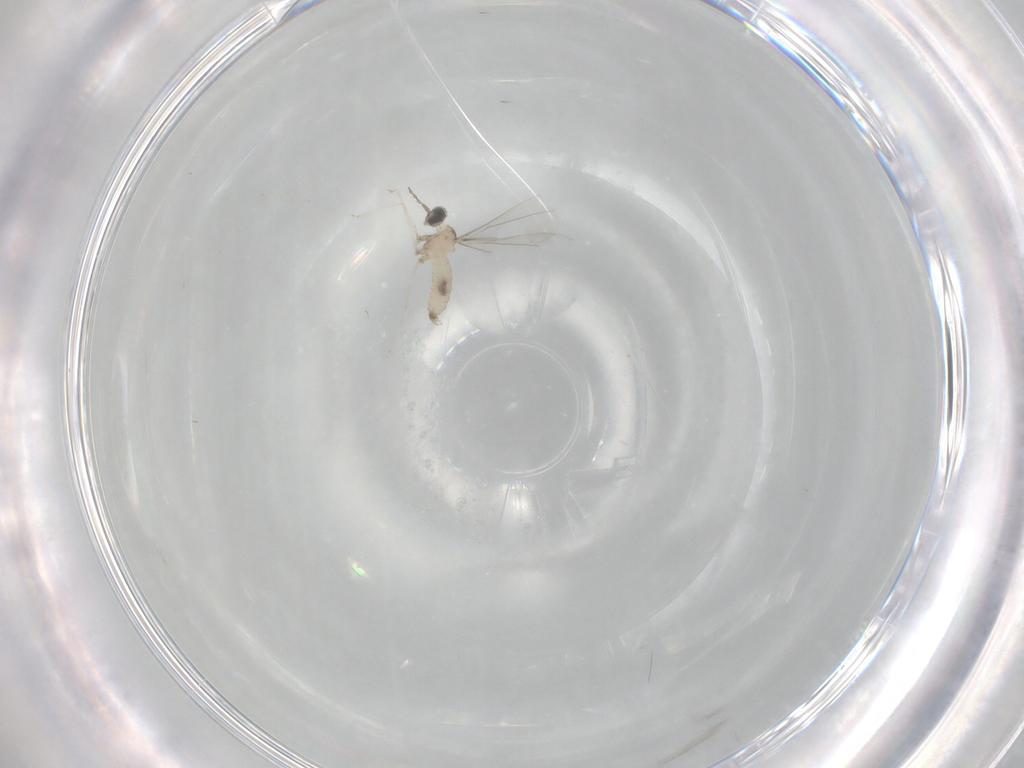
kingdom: Animalia
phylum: Arthropoda
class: Insecta
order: Diptera
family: Cecidomyiidae
